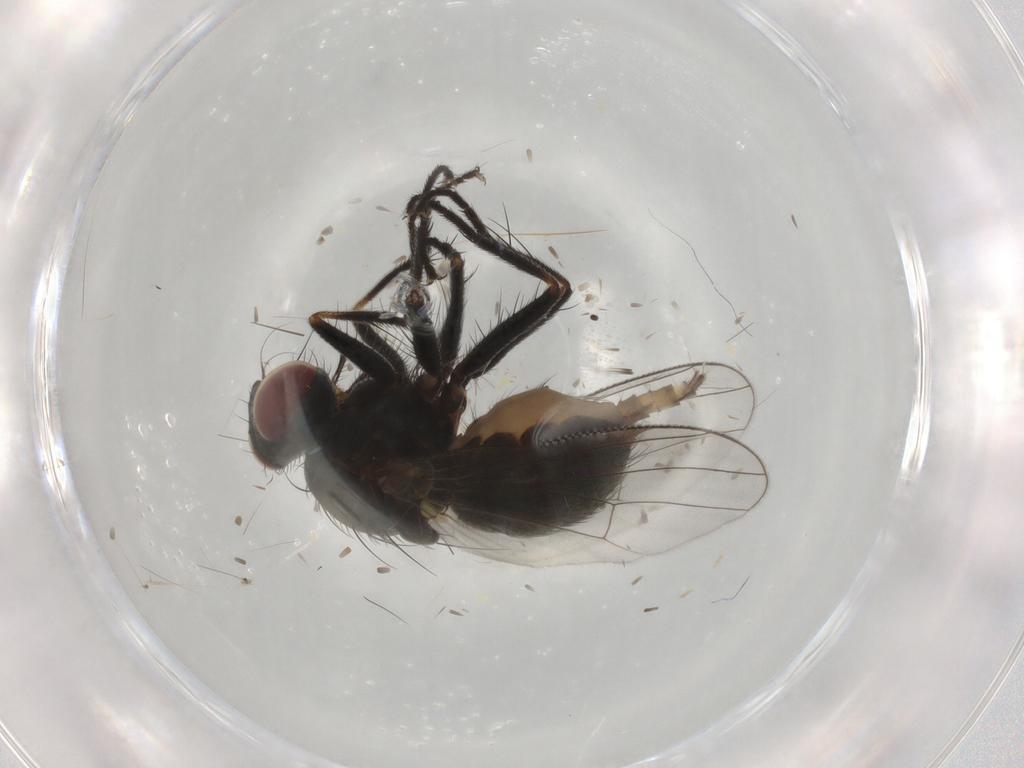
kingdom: Animalia
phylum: Arthropoda
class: Insecta
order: Diptera
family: Muscidae
